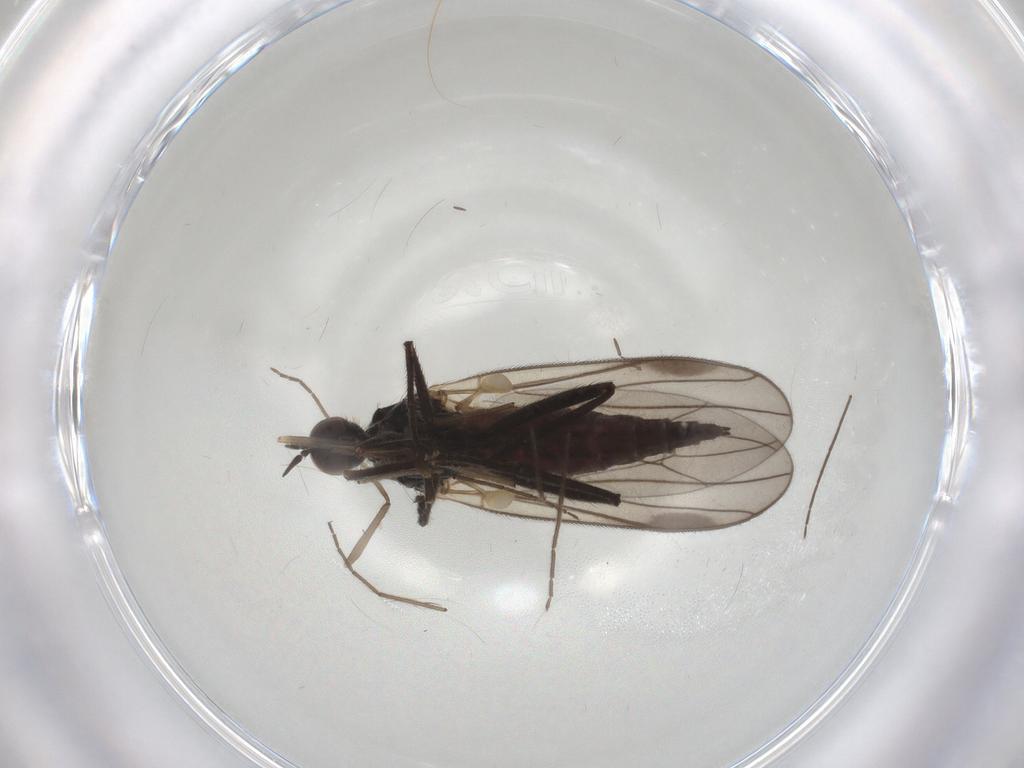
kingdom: Animalia
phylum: Arthropoda
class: Insecta
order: Diptera
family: Hybotidae
